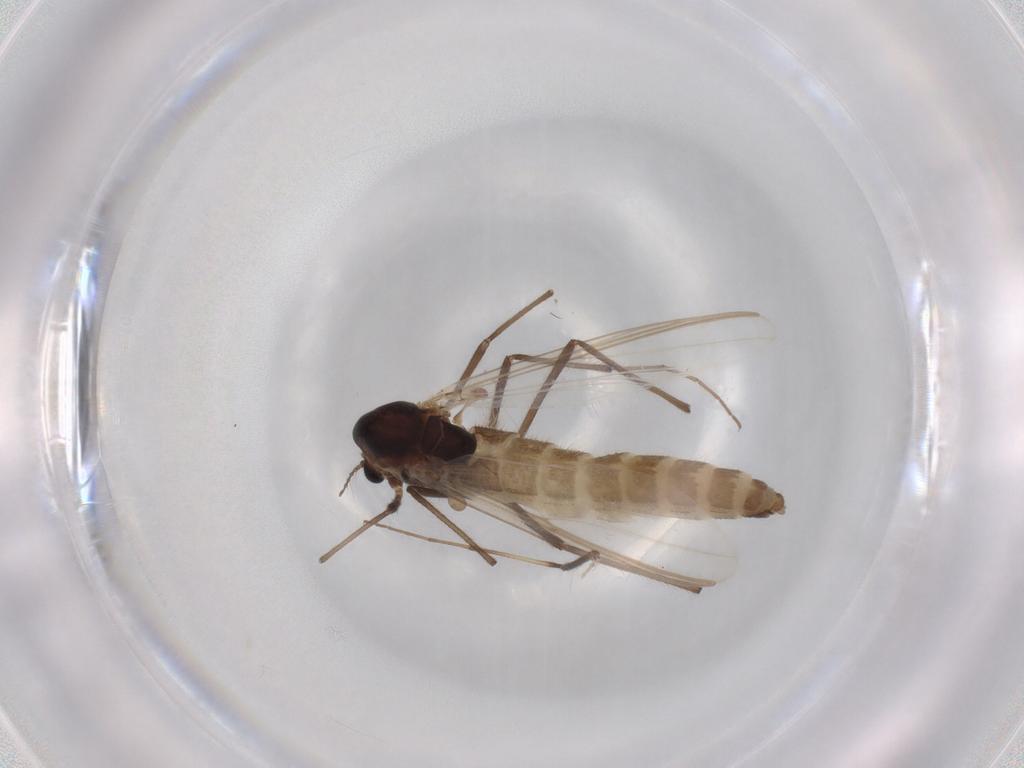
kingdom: Animalia
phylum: Arthropoda
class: Insecta
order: Diptera
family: Chironomidae
